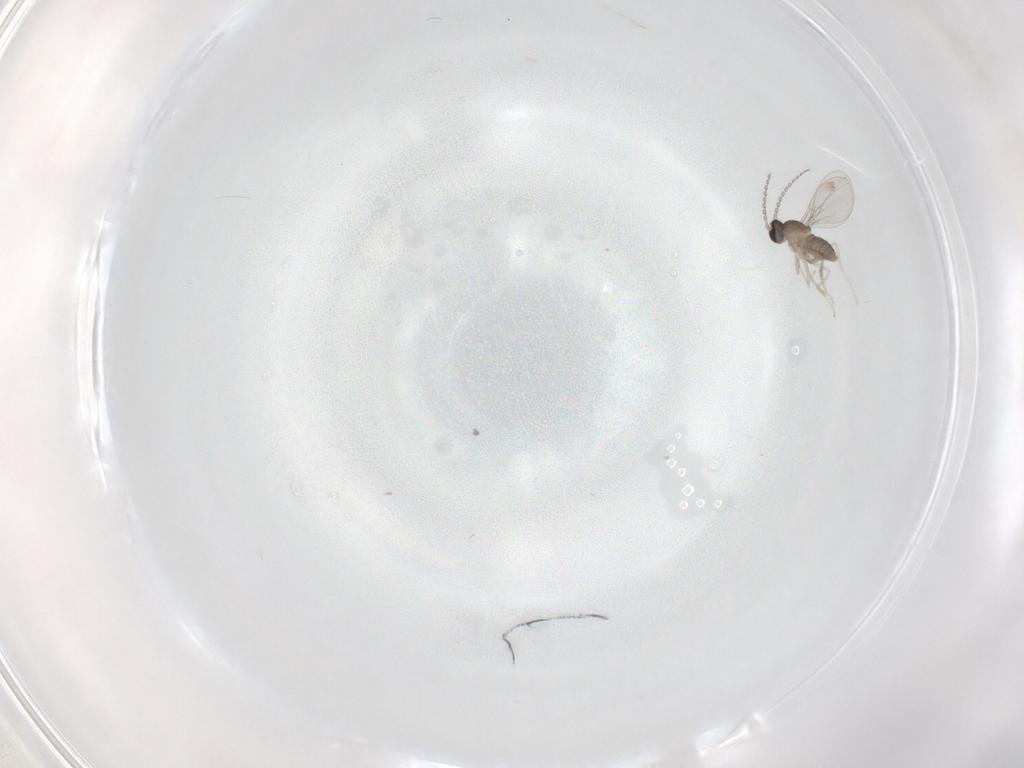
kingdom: Animalia
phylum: Arthropoda
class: Insecta
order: Diptera
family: Cecidomyiidae
